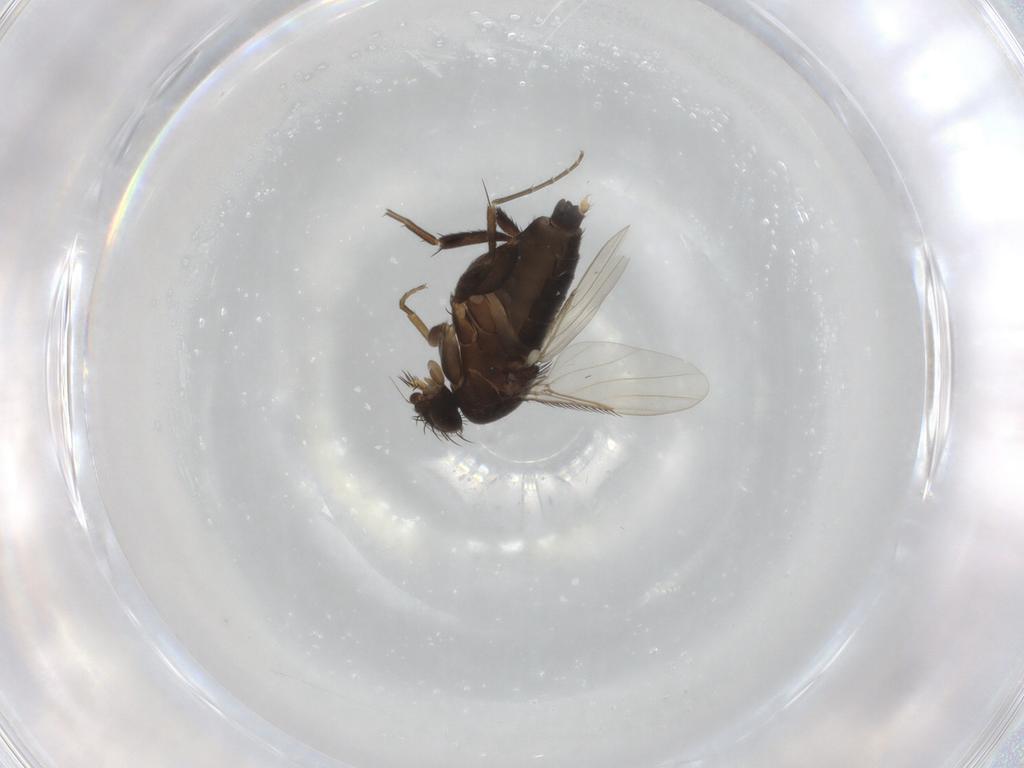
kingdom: Animalia
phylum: Arthropoda
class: Insecta
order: Diptera
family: Phoridae
